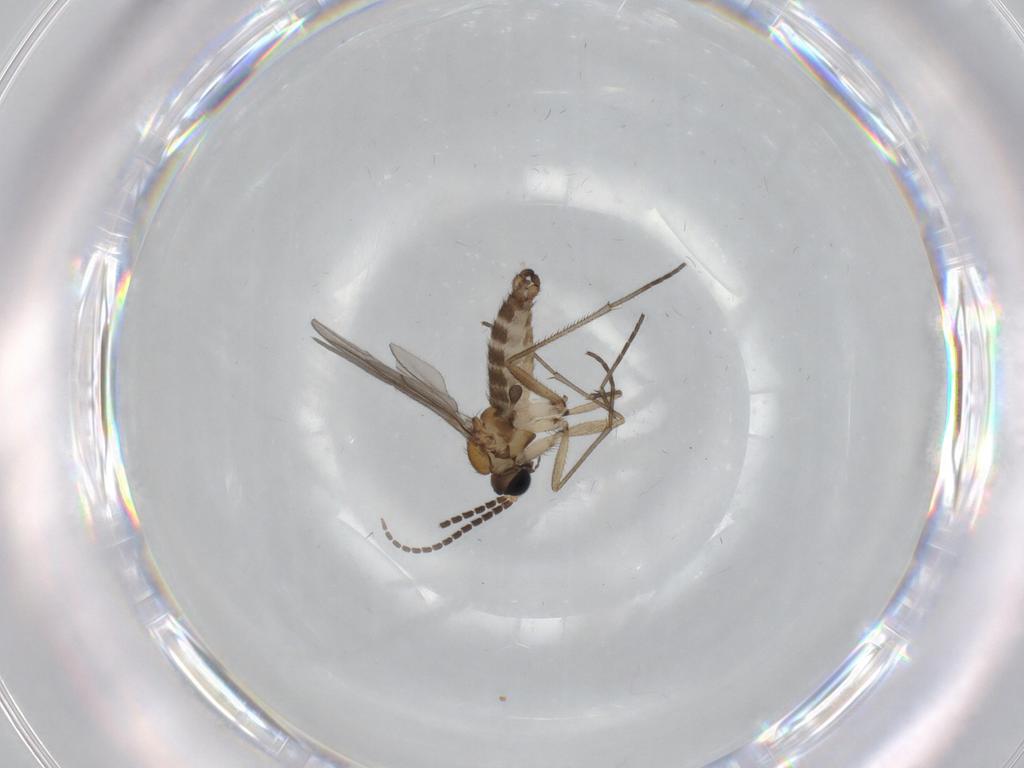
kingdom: Animalia
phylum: Arthropoda
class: Insecta
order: Diptera
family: Sciaridae
